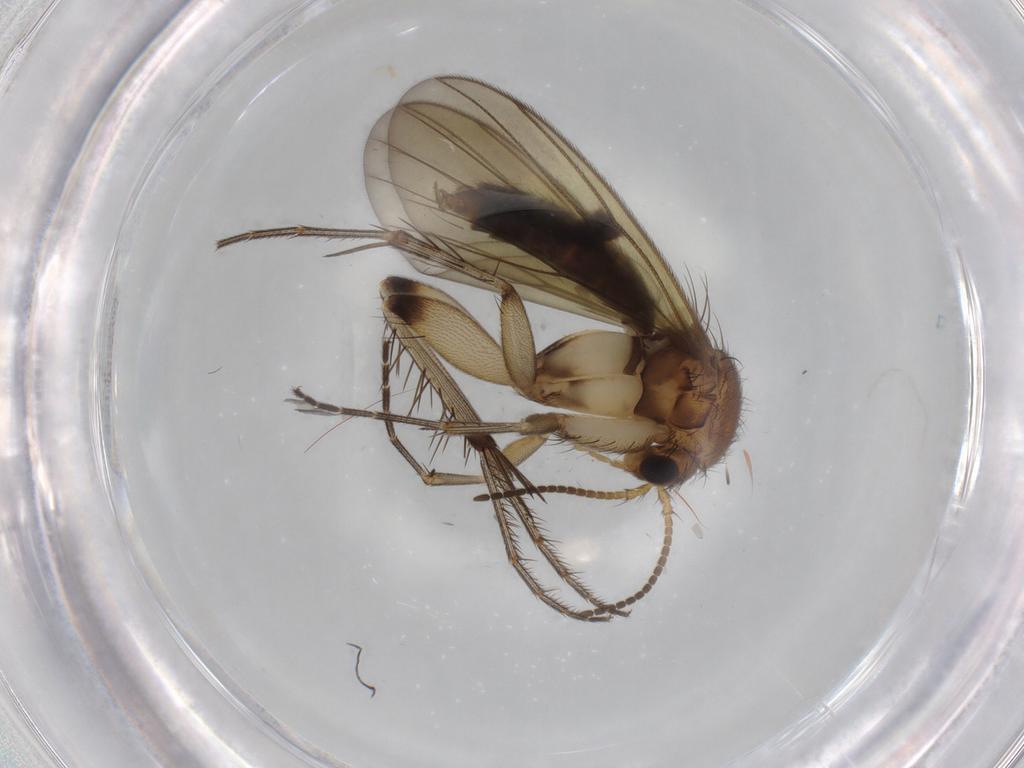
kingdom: Animalia
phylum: Arthropoda
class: Insecta
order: Diptera
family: Mycetophilidae
